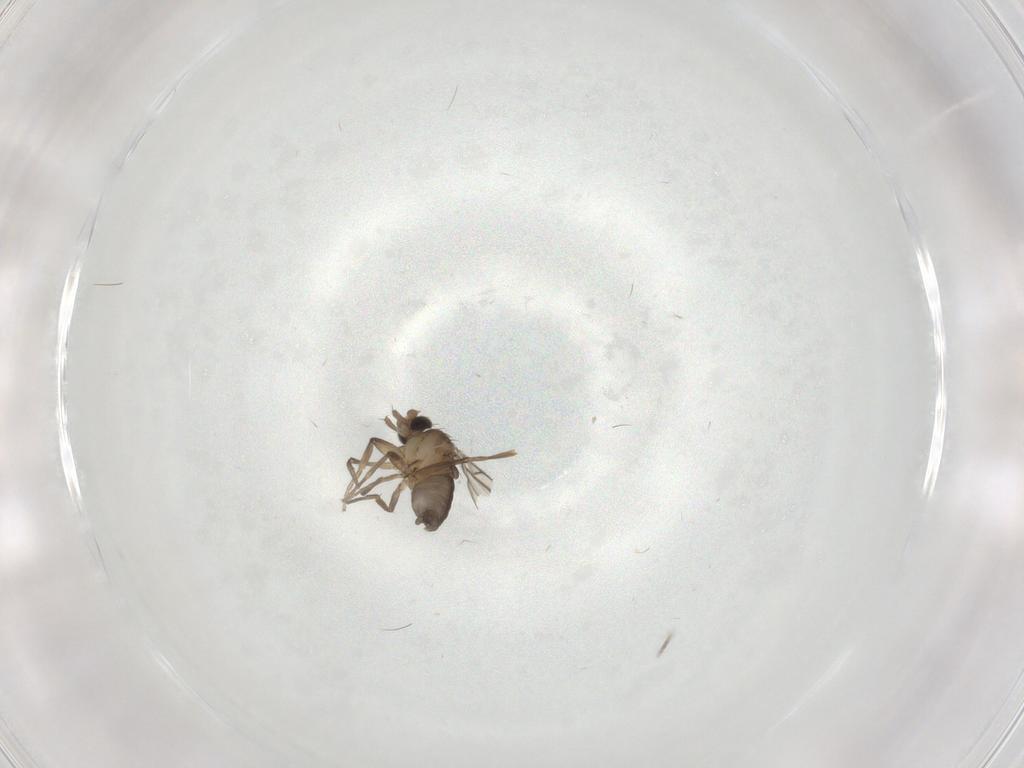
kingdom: Animalia
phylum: Arthropoda
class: Insecta
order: Diptera
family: Phoridae
